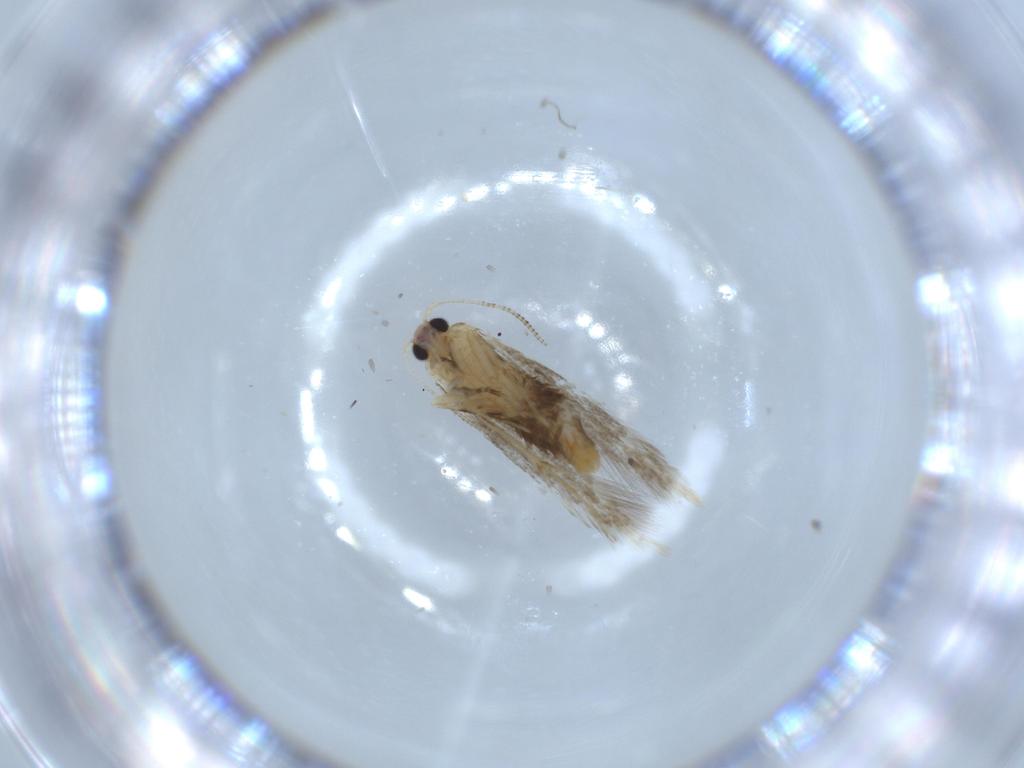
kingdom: Animalia
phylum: Arthropoda
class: Insecta
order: Lepidoptera
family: Tineidae
